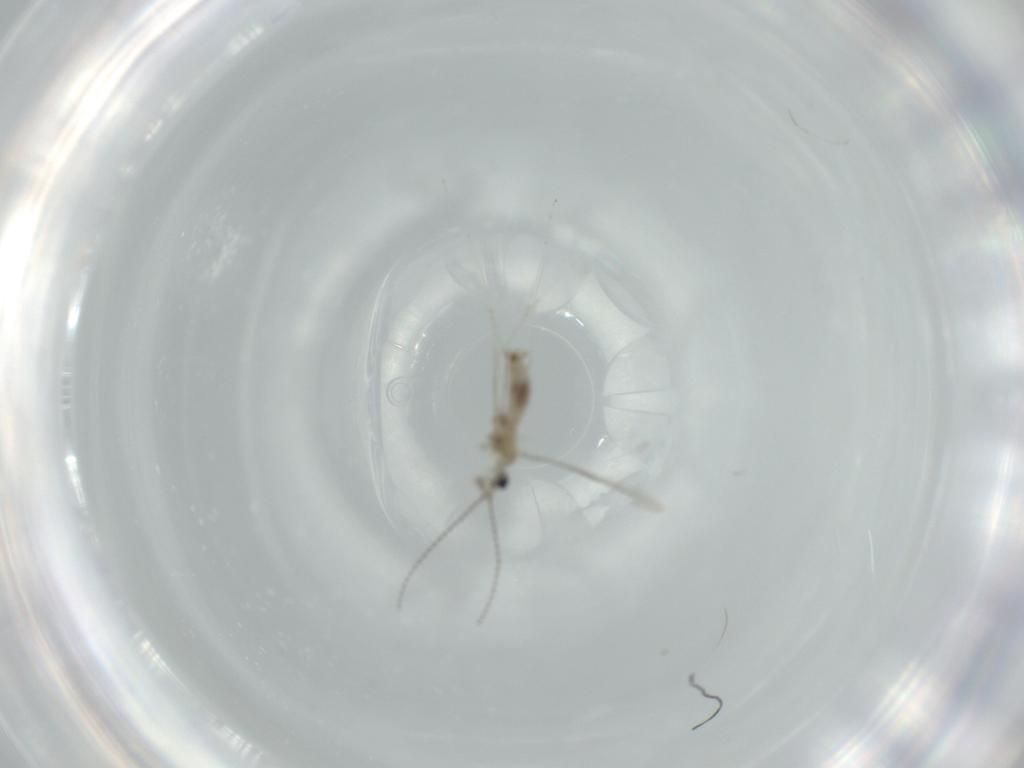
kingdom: Animalia
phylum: Arthropoda
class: Insecta
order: Diptera
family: Cecidomyiidae
